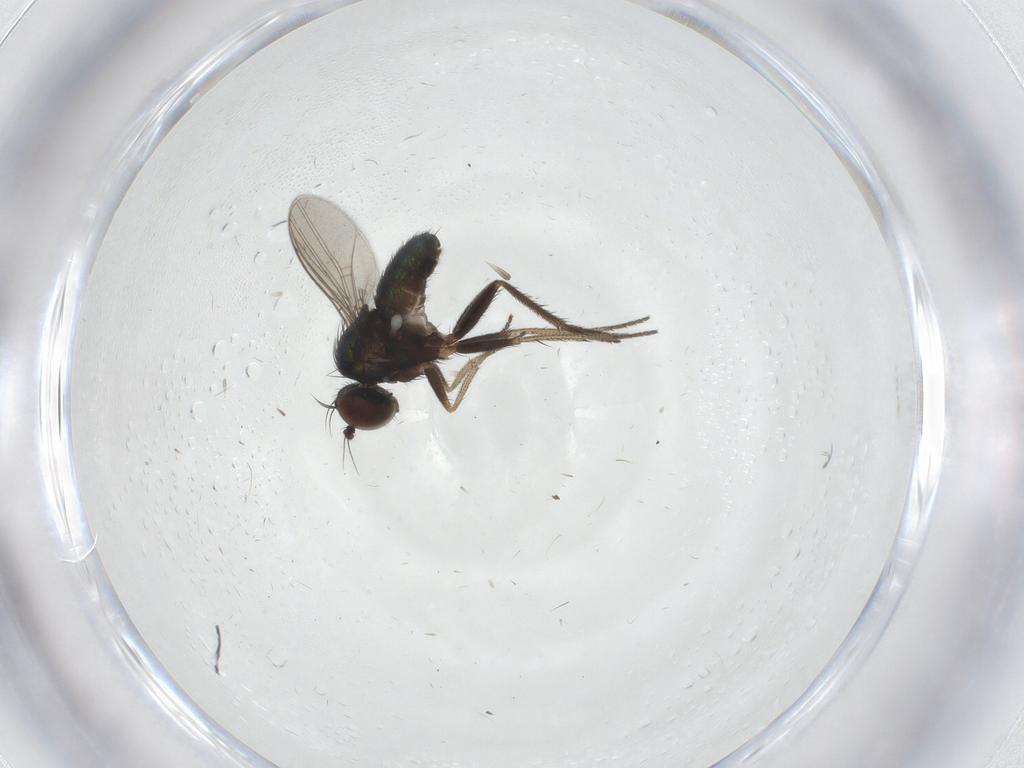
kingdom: Animalia
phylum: Arthropoda
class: Insecta
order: Diptera
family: Dolichopodidae
